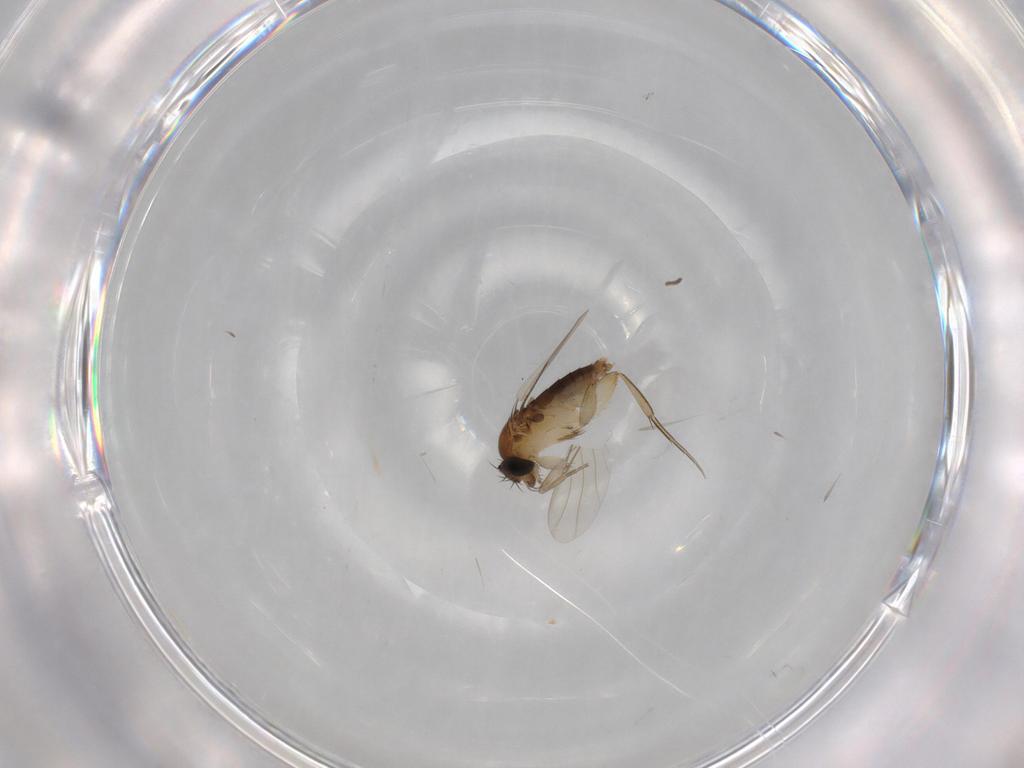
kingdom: Animalia
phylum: Arthropoda
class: Insecta
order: Diptera
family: Phoridae
